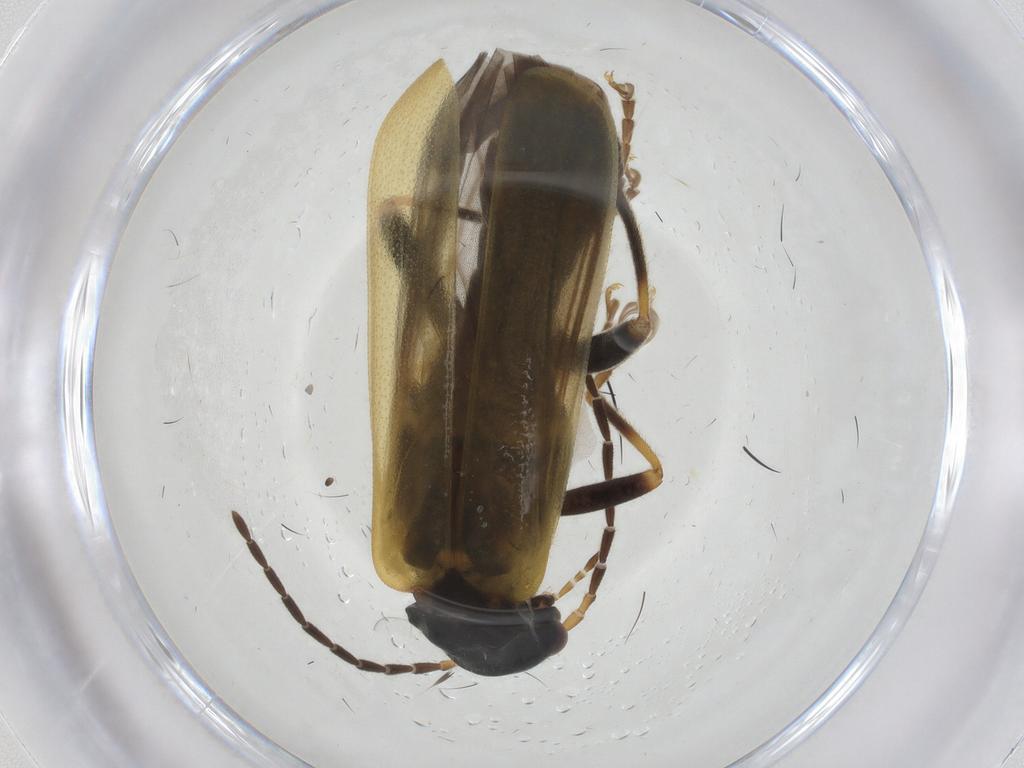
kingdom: Animalia
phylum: Arthropoda
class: Insecta
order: Coleoptera
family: Cantharidae
